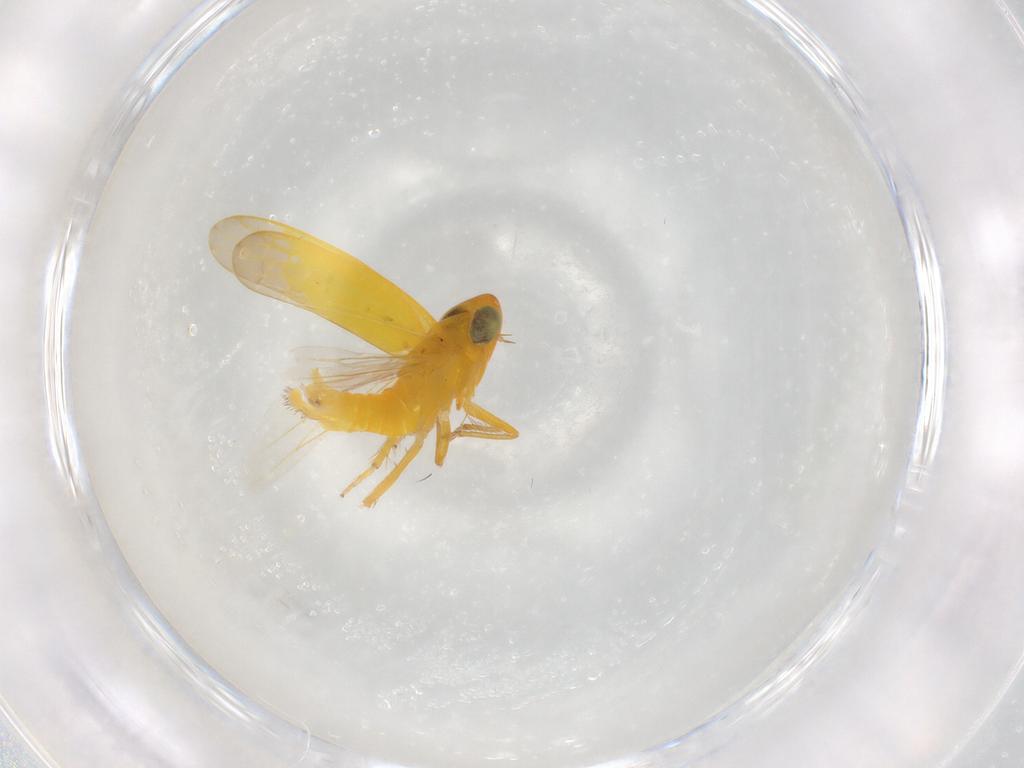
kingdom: Animalia
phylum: Arthropoda
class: Insecta
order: Hemiptera
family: Cicadellidae
